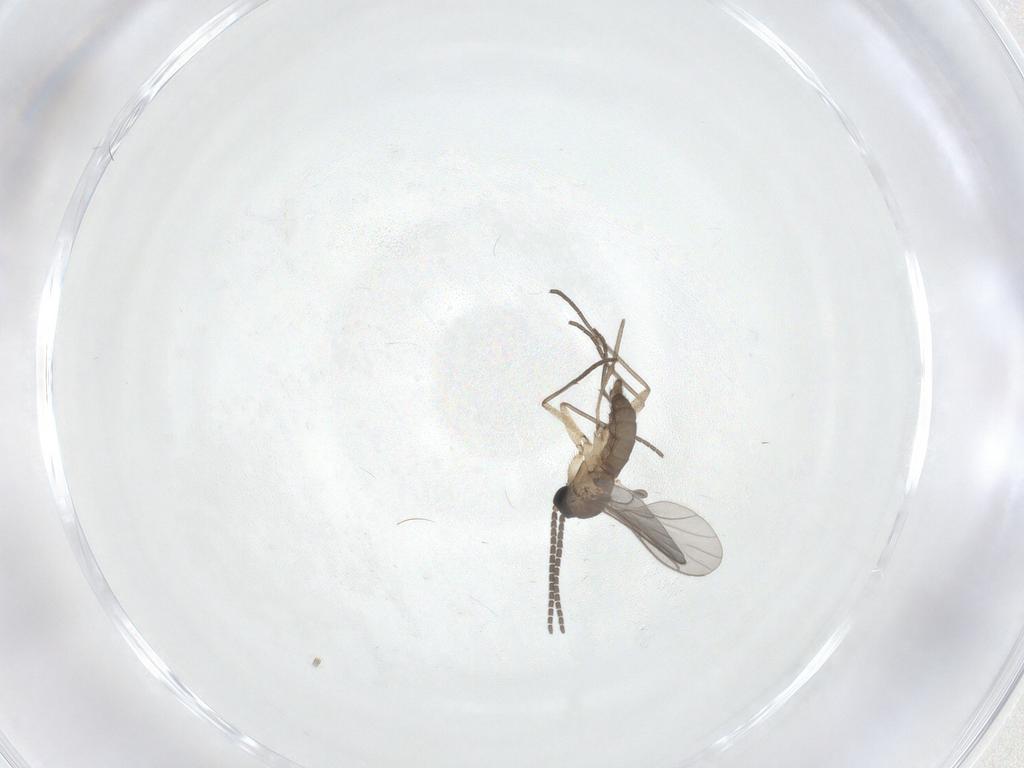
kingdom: Animalia
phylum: Arthropoda
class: Insecta
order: Diptera
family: Sciaridae
